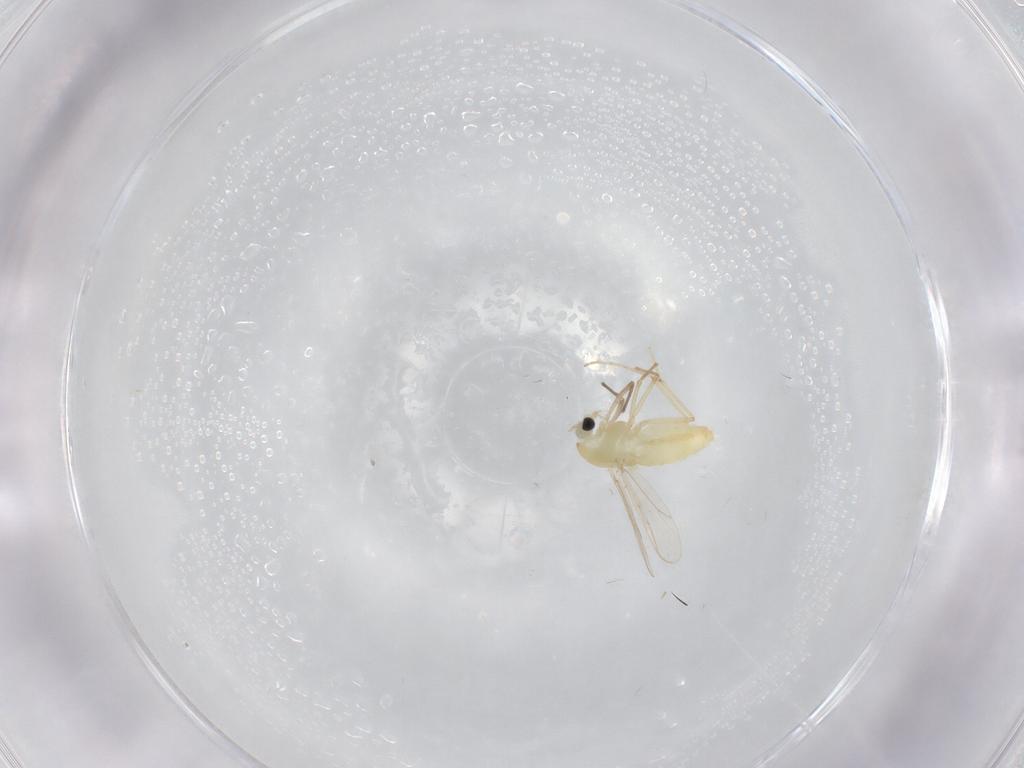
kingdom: Animalia
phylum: Arthropoda
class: Insecta
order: Diptera
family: Chironomidae
